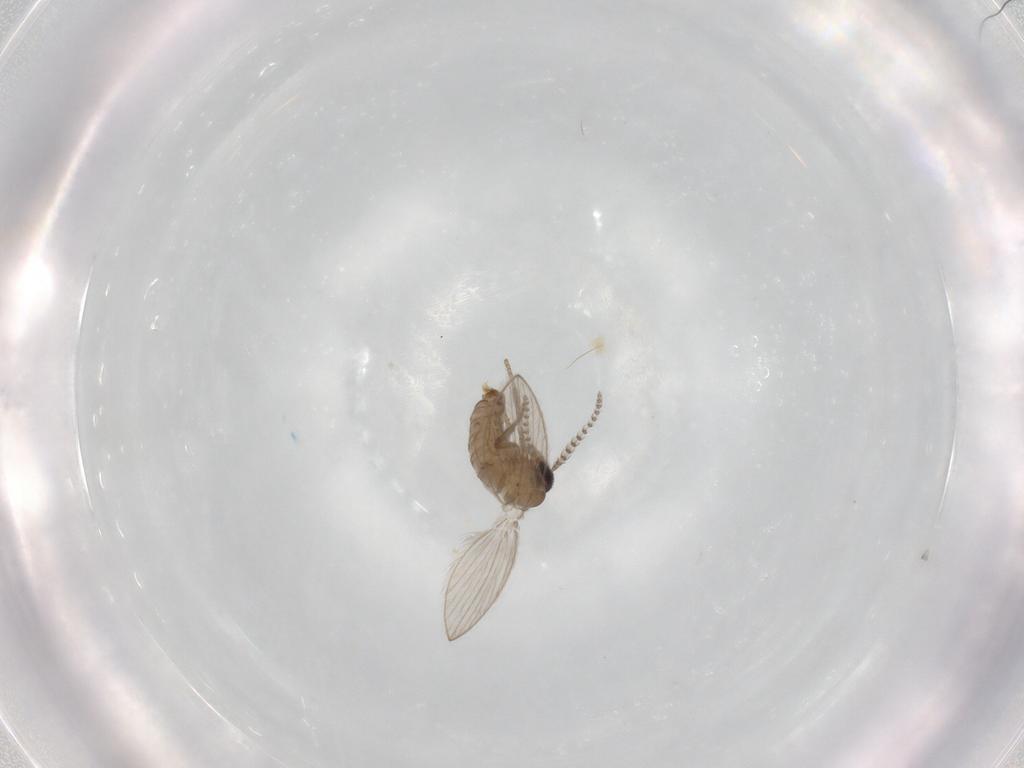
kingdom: Animalia
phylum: Arthropoda
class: Insecta
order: Diptera
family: Psychodidae
